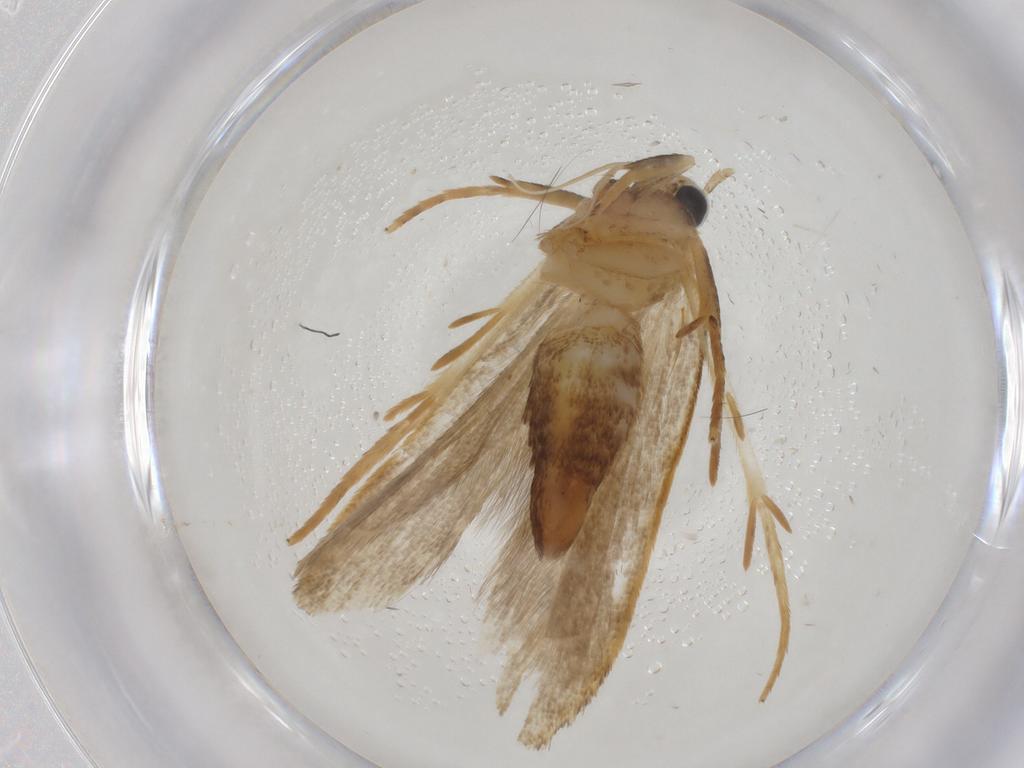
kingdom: Animalia
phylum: Arthropoda
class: Insecta
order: Lepidoptera
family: Gelechiidae
